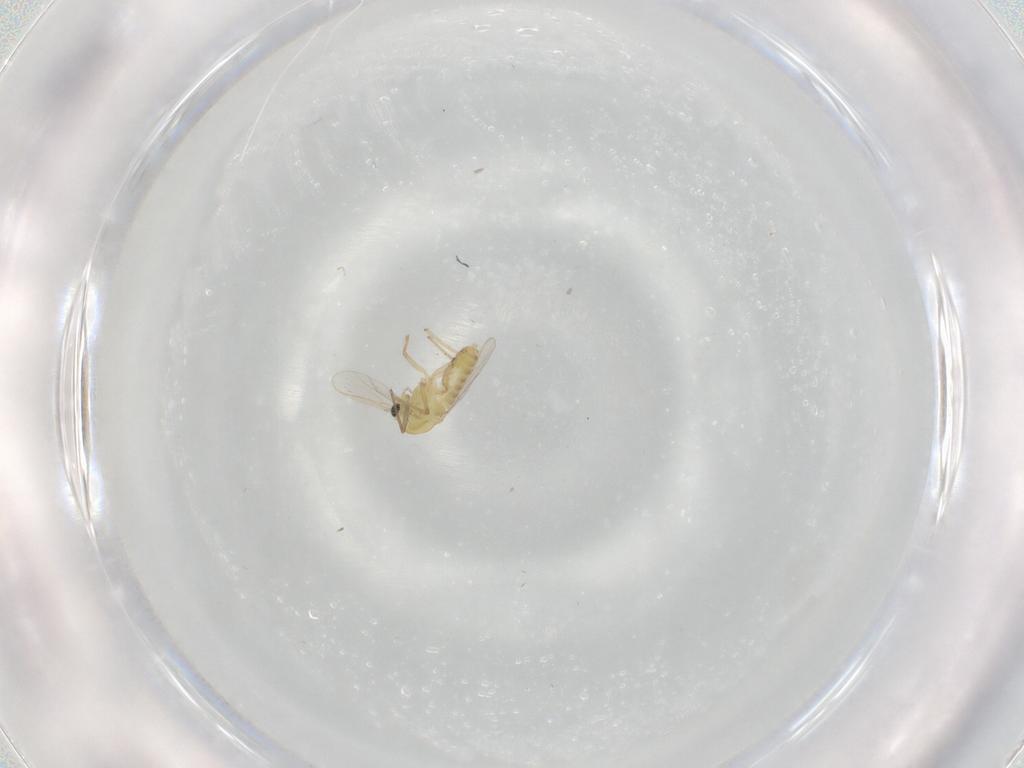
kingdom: Animalia
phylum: Arthropoda
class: Insecta
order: Diptera
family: Chironomidae
